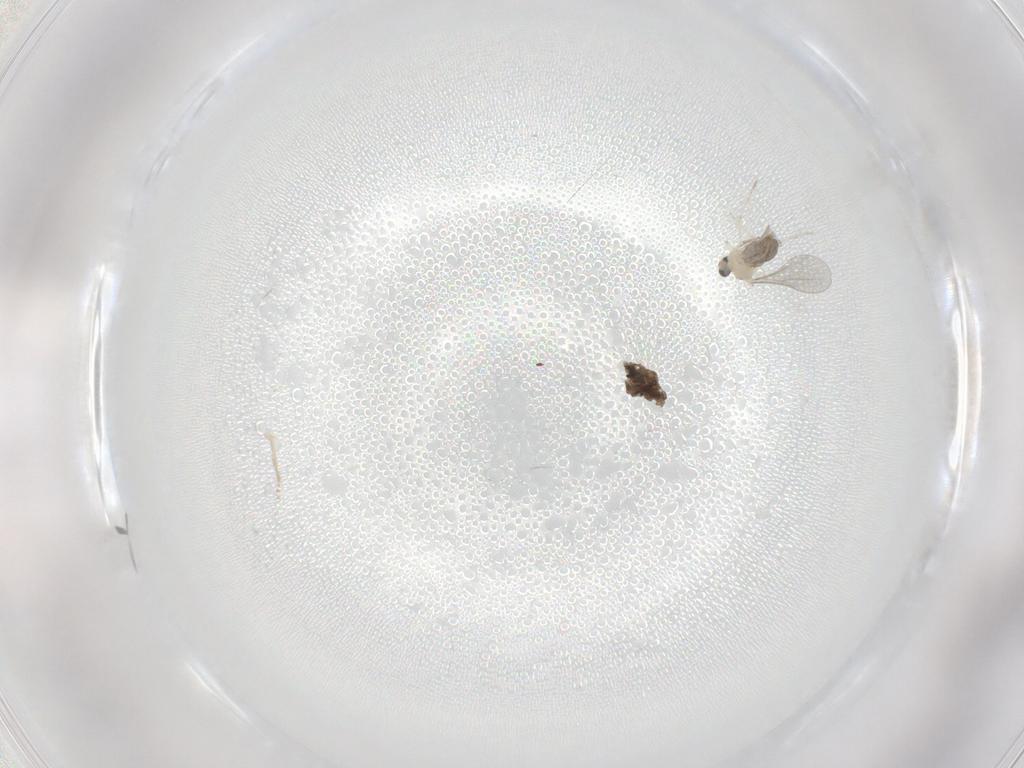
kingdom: Animalia
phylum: Arthropoda
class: Insecta
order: Diptera
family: Cecidomyiidae
